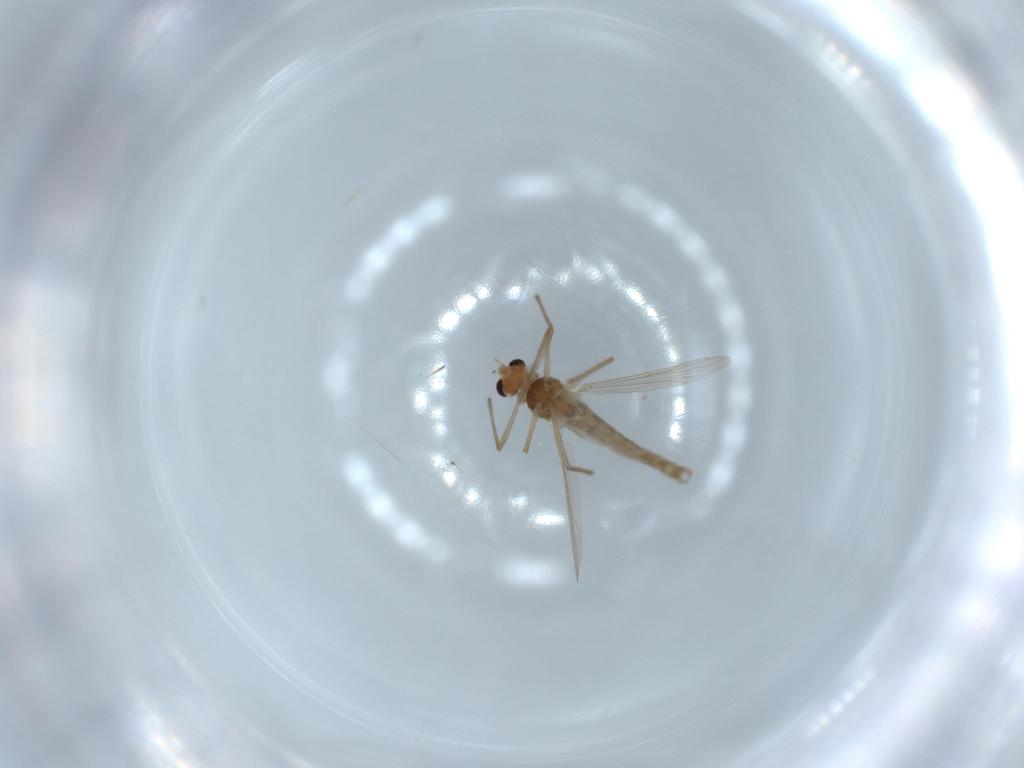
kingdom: Animalia
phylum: Arthropoda
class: Insecta
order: Diptera
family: Chironomidae
